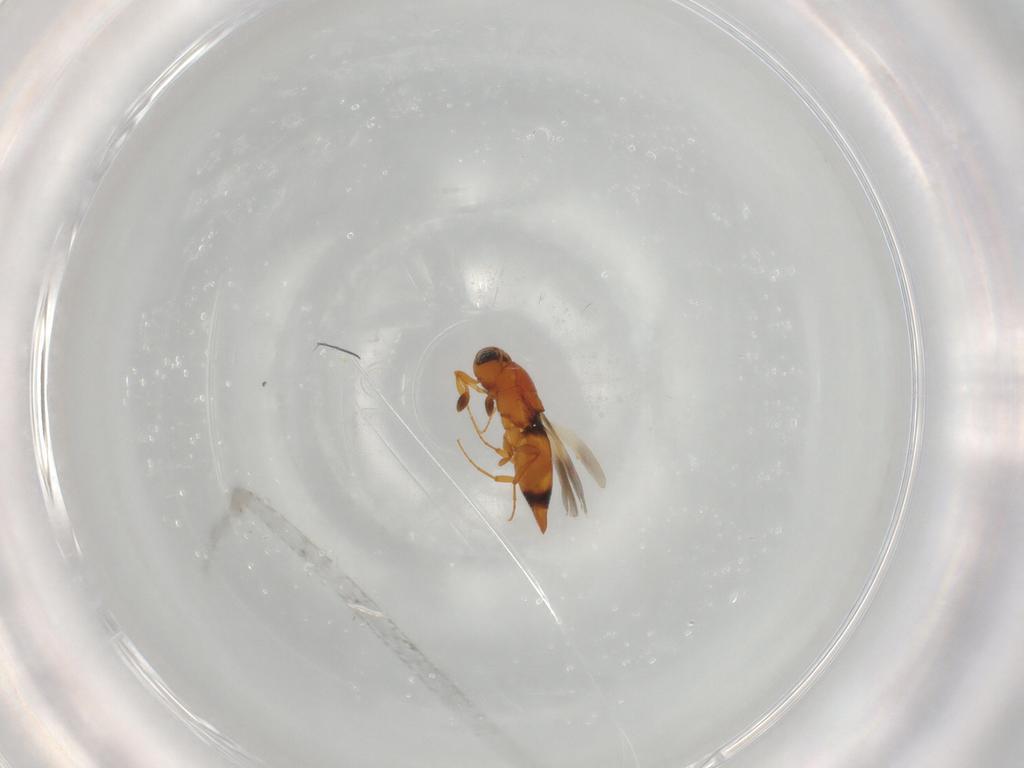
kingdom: Animalia
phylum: Arthropoda
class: Insecta
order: Hymenoptera
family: Platygastridae
